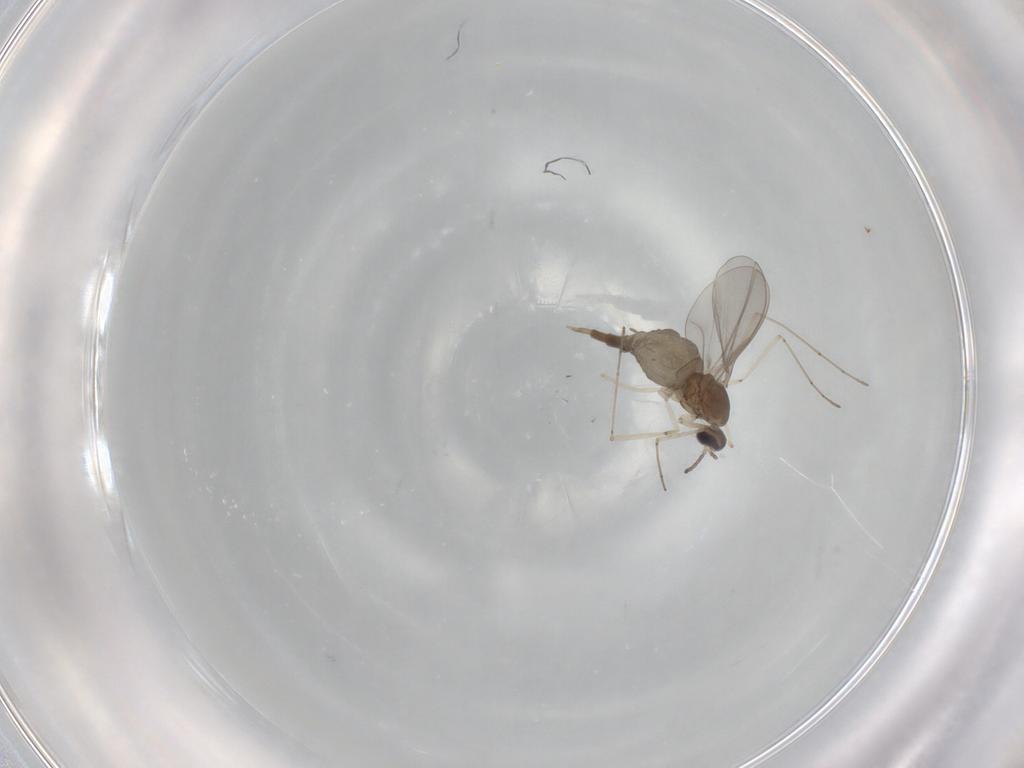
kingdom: Animalia
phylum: Arthropoda
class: Insecta
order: Diptera
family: Cecidomyiidae
